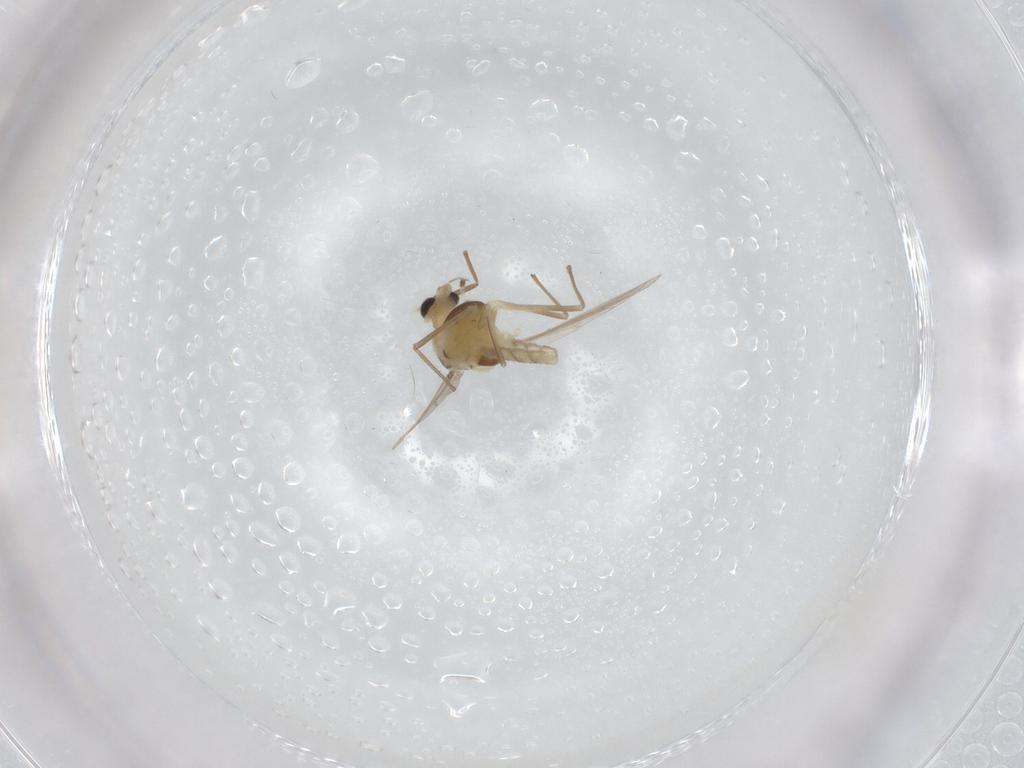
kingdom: Animalia
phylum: Arthropoda
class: Insecta
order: Diptera
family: Chironomidae
